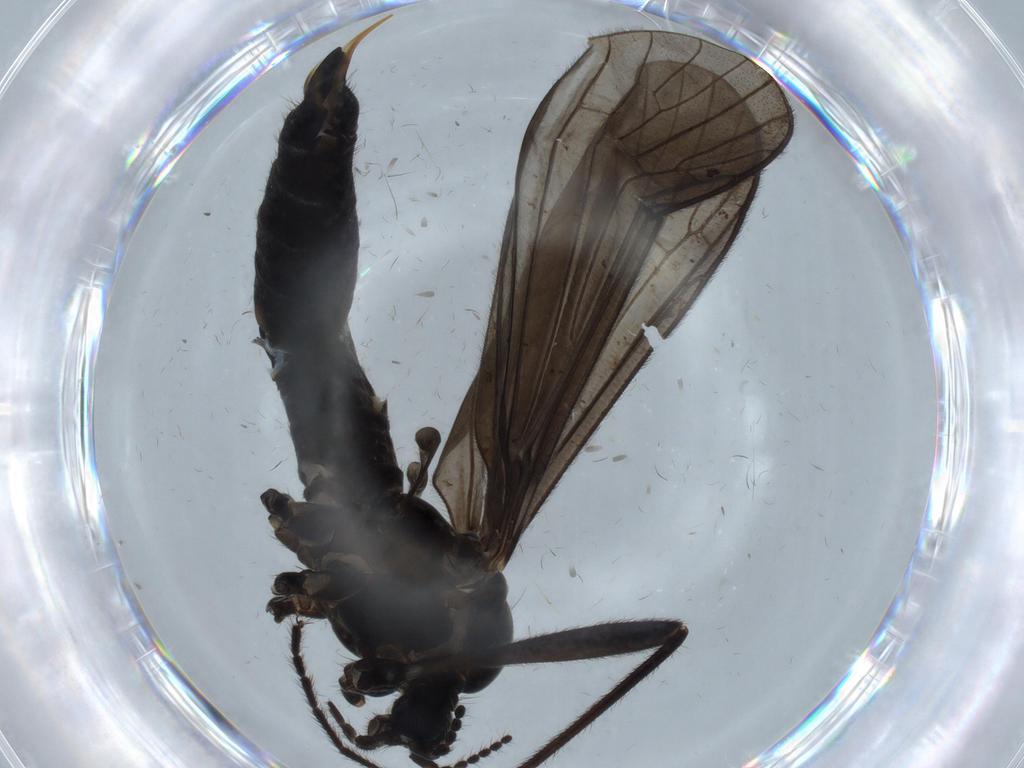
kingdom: Animalia
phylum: Arthropoda
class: Insecta
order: Diptera
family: Limoniidae
